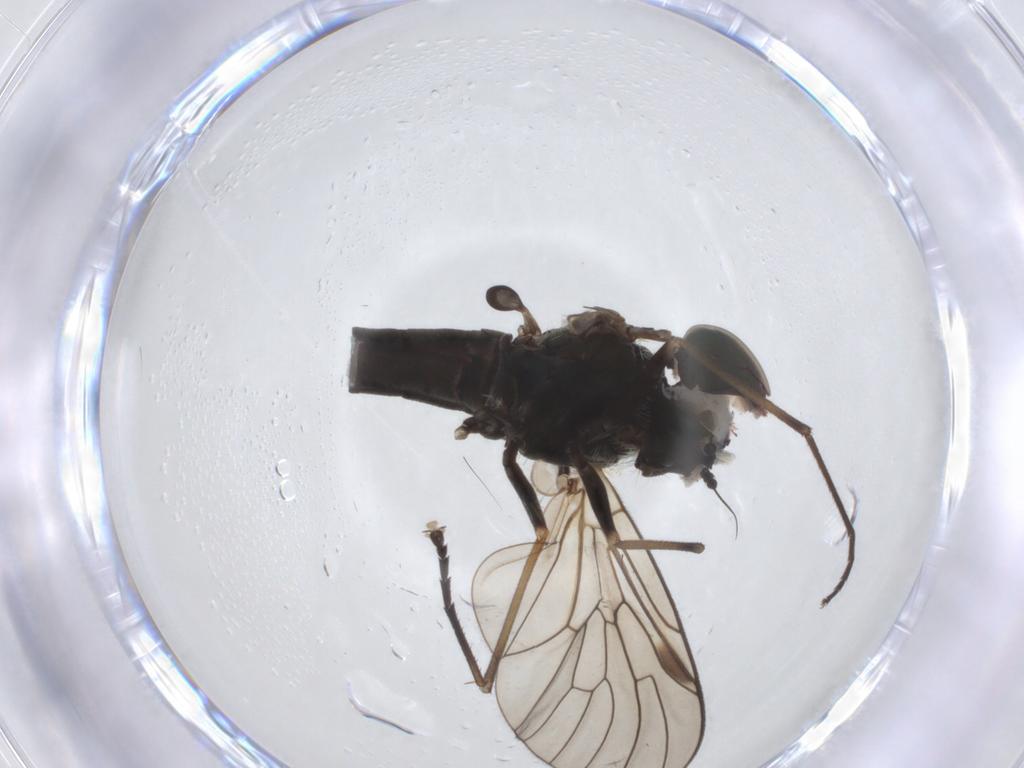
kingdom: Animalia
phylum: Arthropoda
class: Insecta
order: Diptera
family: Rhagionidae
